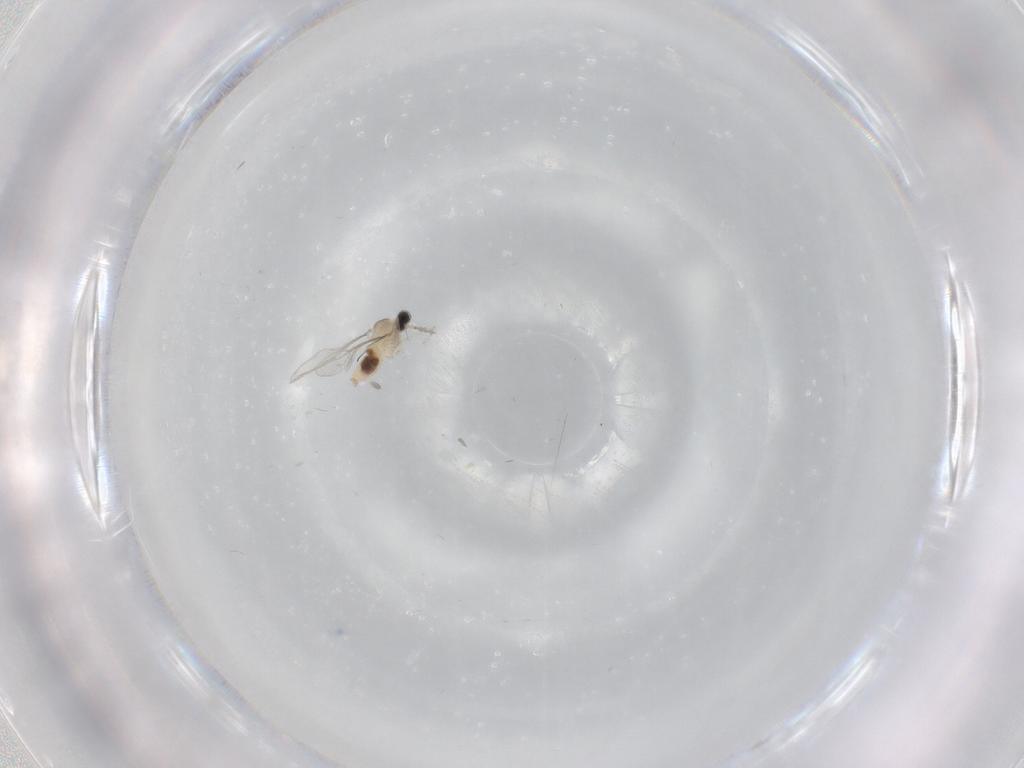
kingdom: Animalia
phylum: Arthropoda
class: Insecta
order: Diptera
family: Cecidomyiidae
